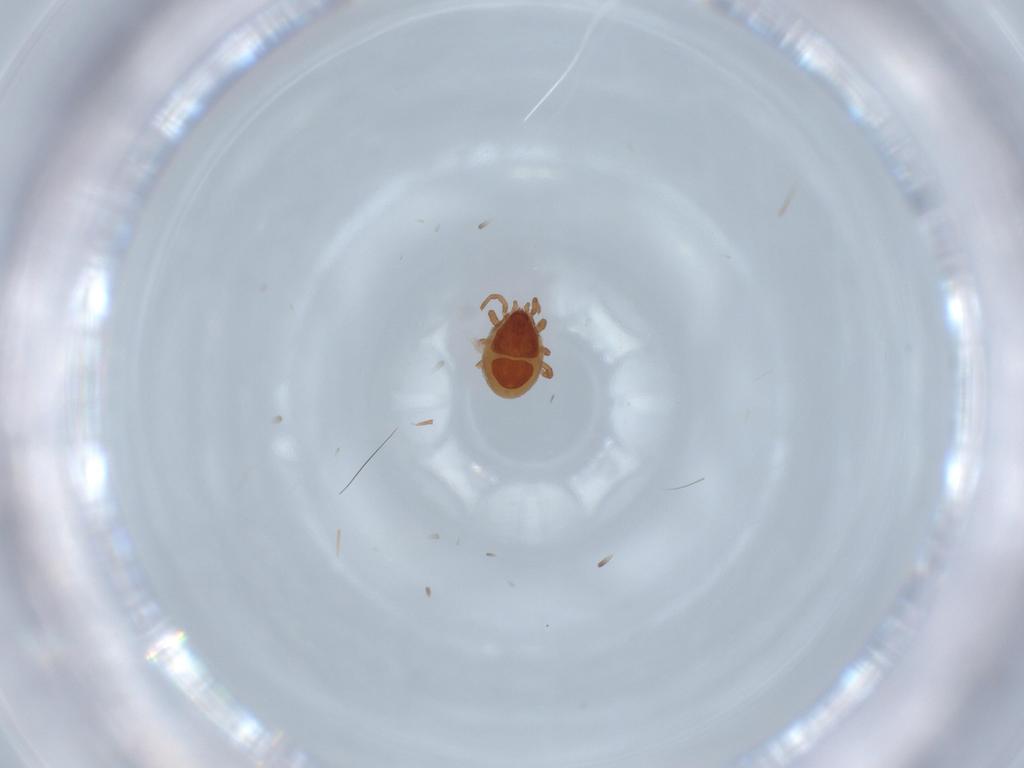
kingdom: Animalia
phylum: Arthropoda
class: Arachnida
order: Mesostigmata
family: Parasitidae
